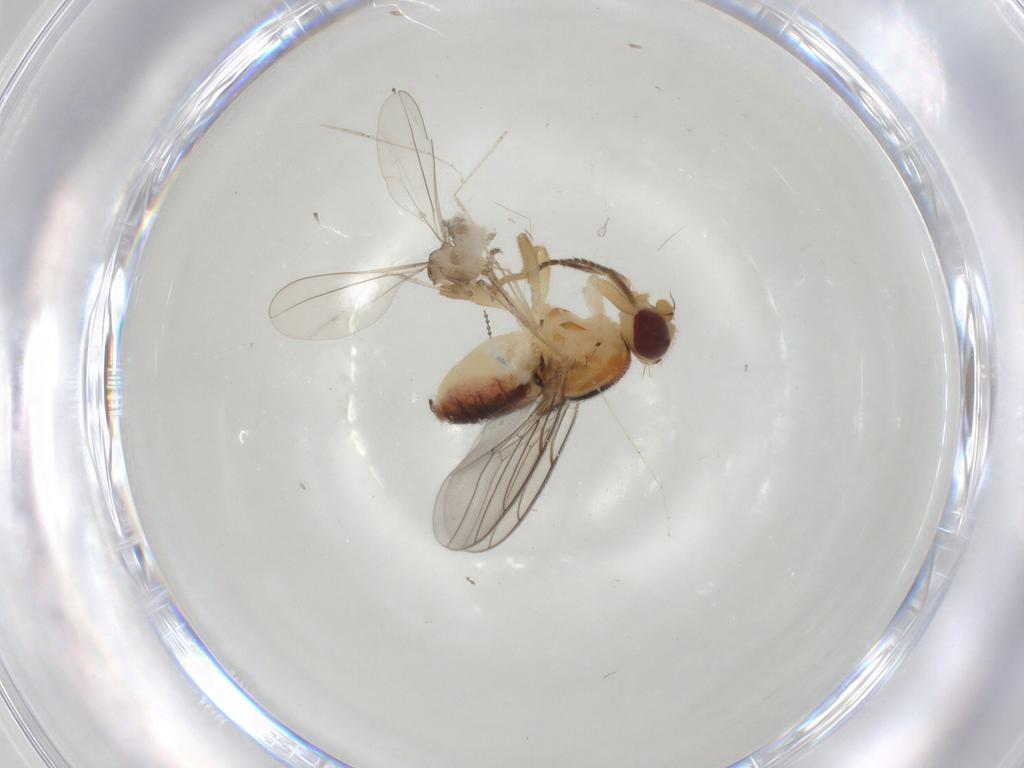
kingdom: Animalia
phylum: Arthropoda
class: Insecta
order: Diptera
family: Chloropidae
